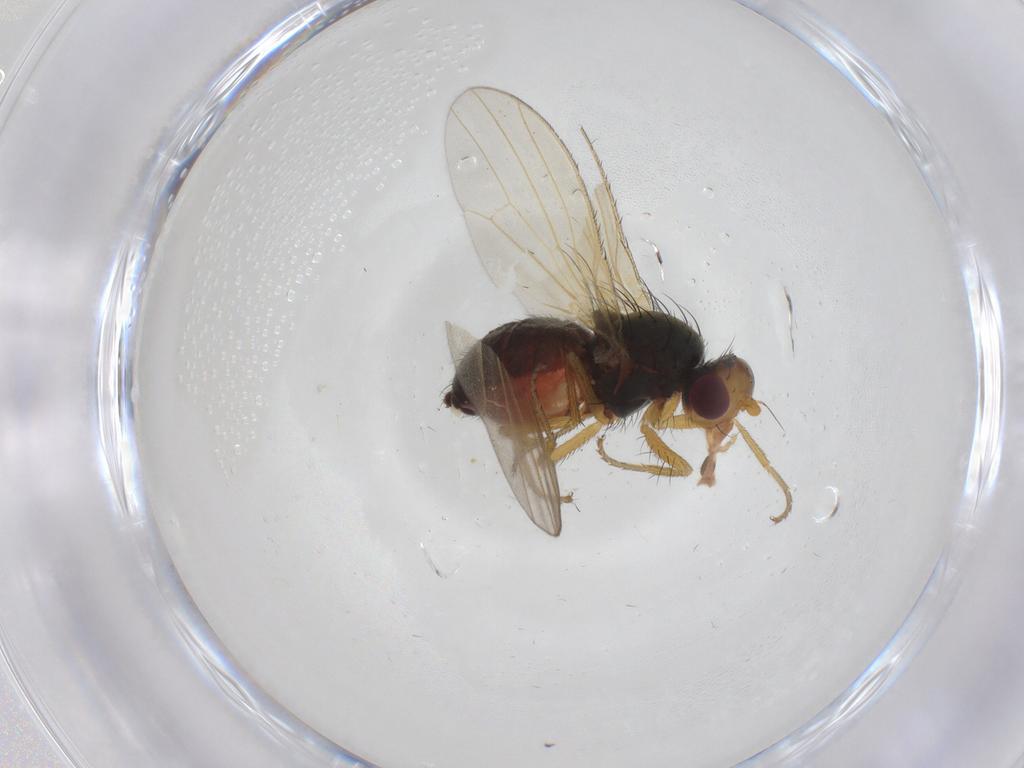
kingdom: Animalia
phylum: Arthropoda
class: Insecta
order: Diptera
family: Heleomyzidae
